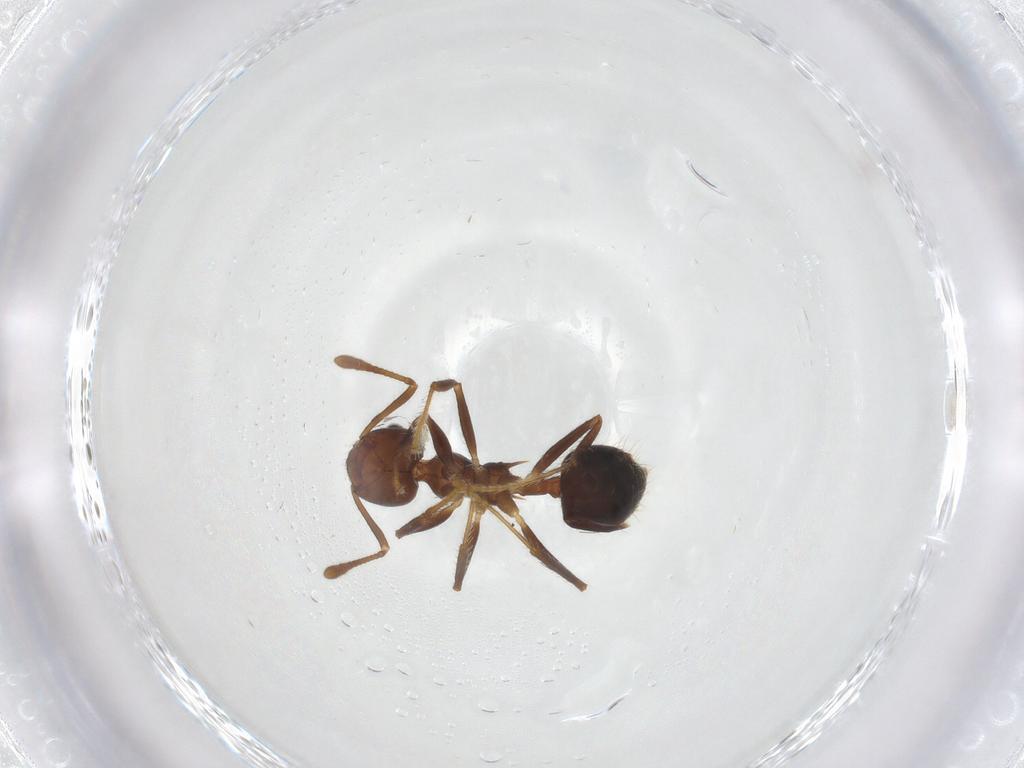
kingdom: Animalia
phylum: Arthropoda
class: Insecta
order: Hymenoptera
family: Formicidae
